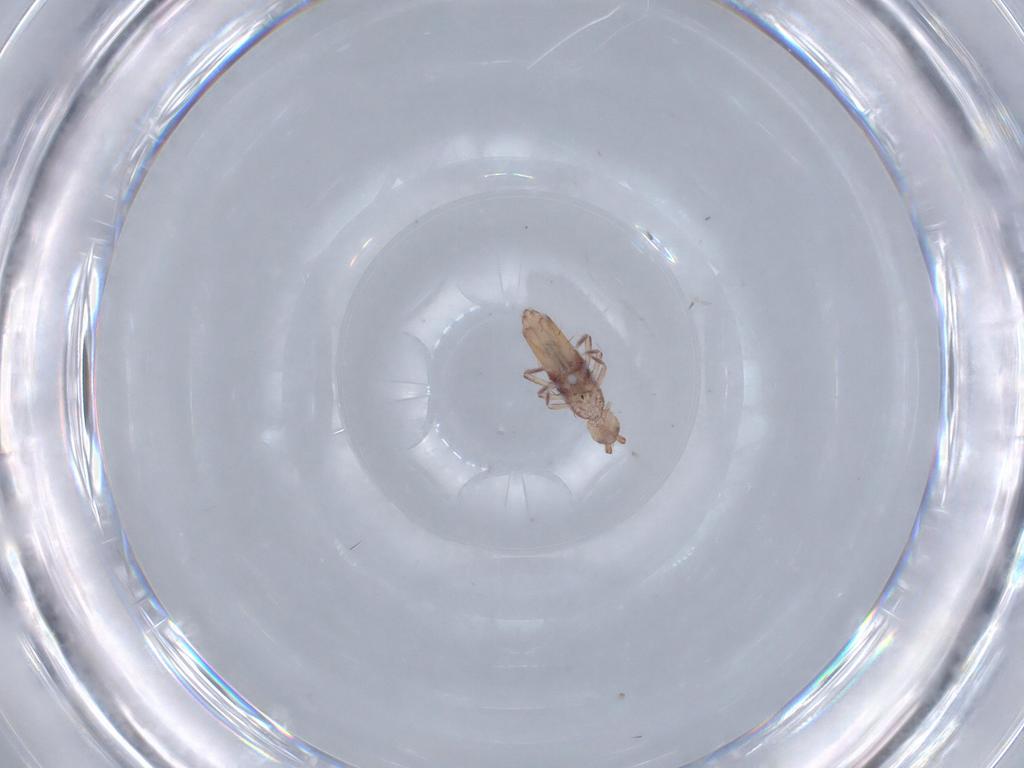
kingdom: Animalia
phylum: Arthropoda
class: Collembola
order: Entomobryomorpha
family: Entomobryidae
